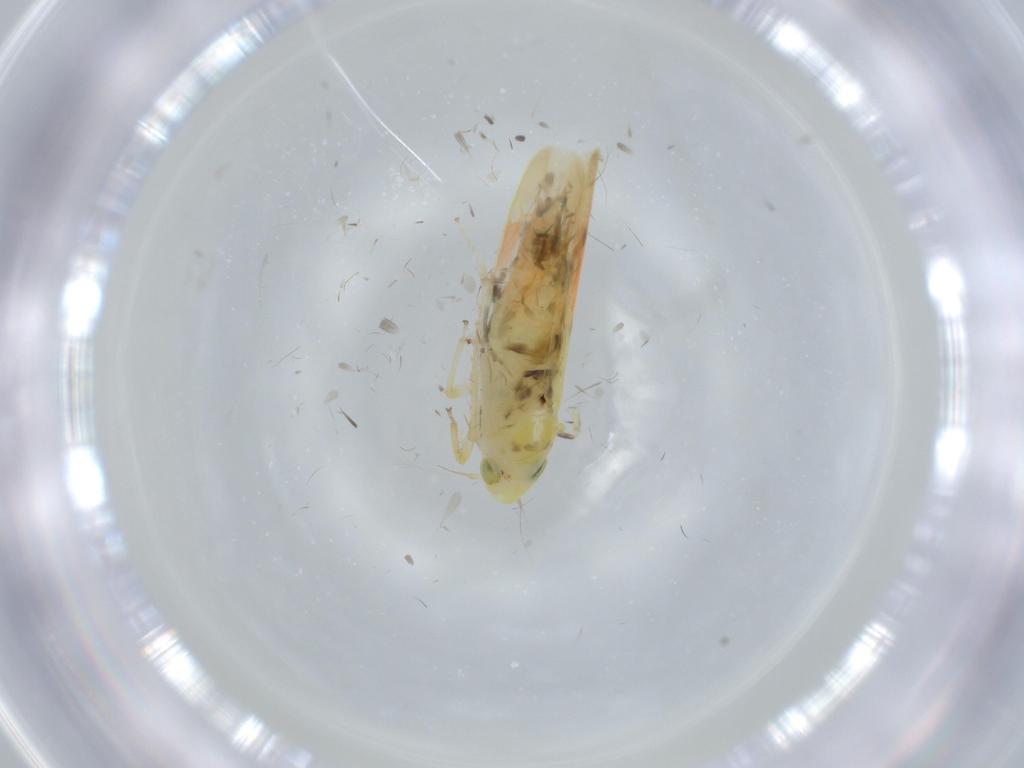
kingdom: Animalia
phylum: Arthropoda
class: Insecta
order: Hemiptera
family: Cicadellidae
